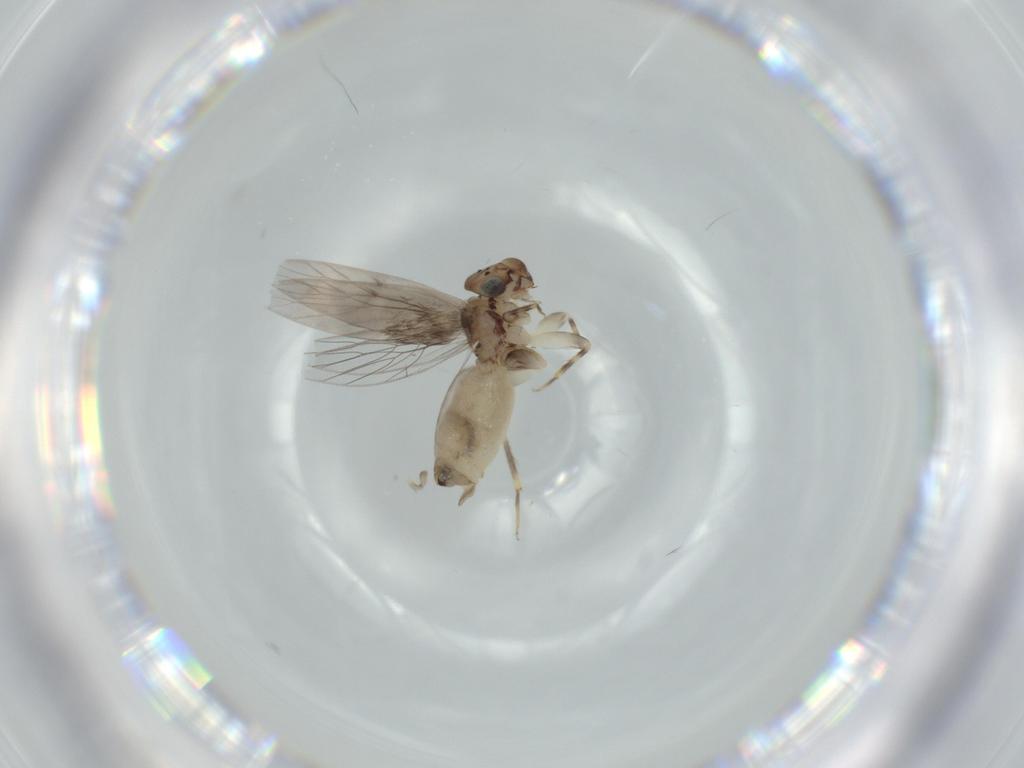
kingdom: Animalia
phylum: Arthropoda
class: Insecta
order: Psocodea
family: Lepidopsocidae
